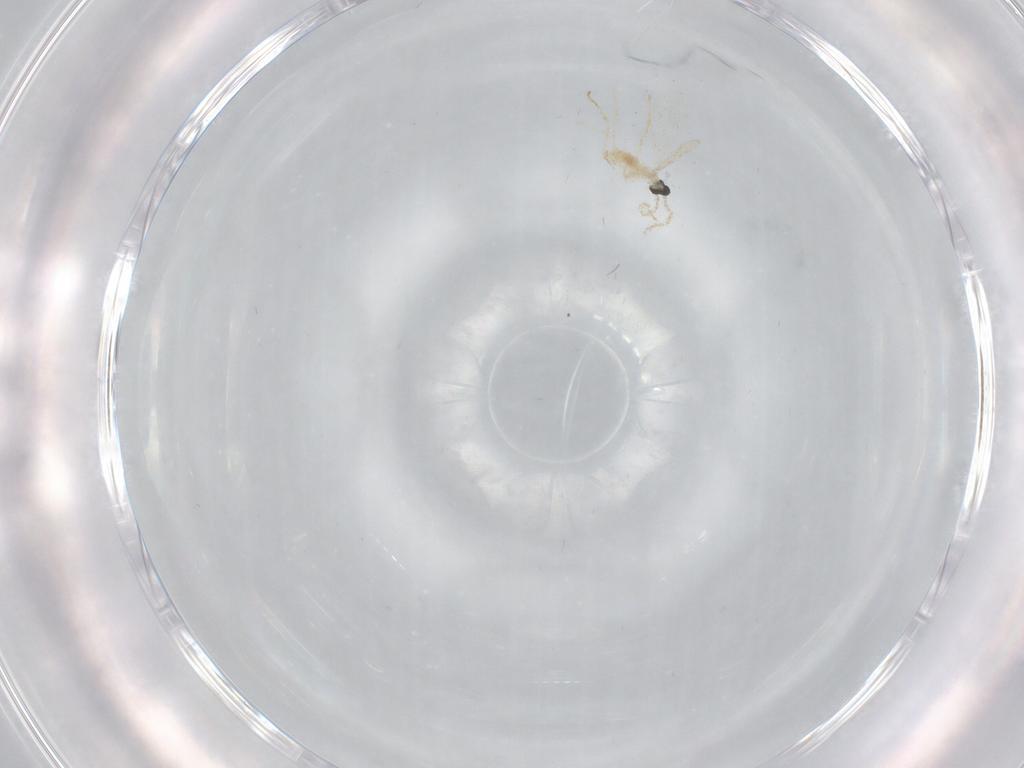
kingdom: Animalia
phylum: Arthropoda
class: Insecta
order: Diptera
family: Cecidomyiidae
